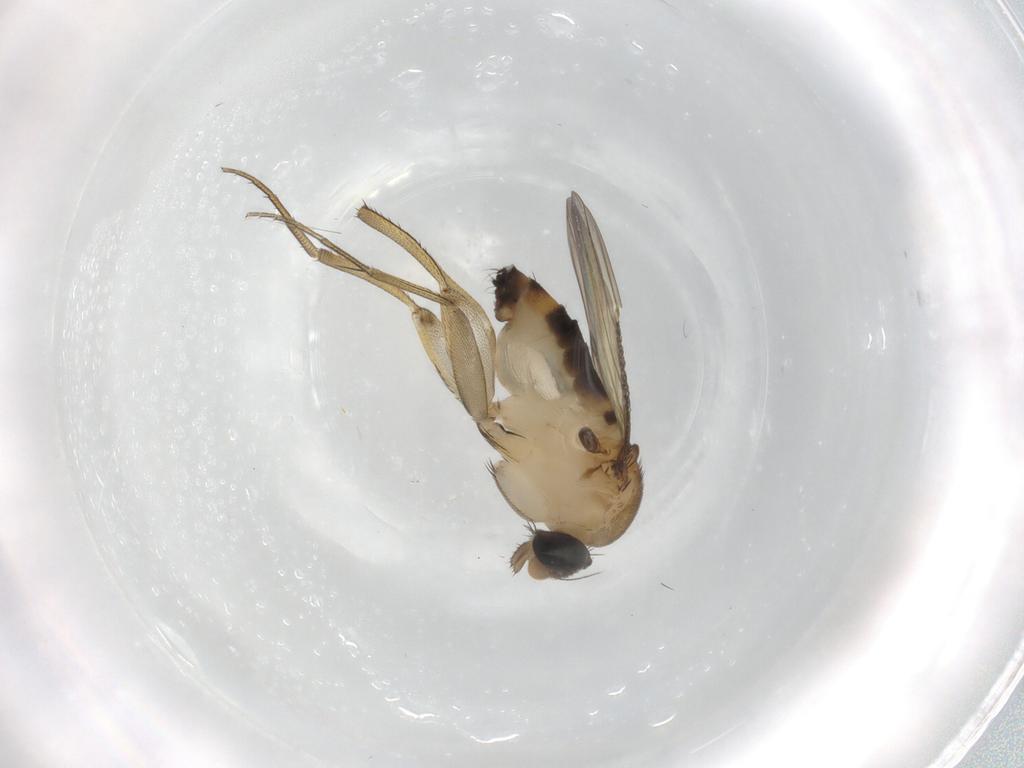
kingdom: Animalia
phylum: Arthropoda
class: Insecta
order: Diptera
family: Phoridae
